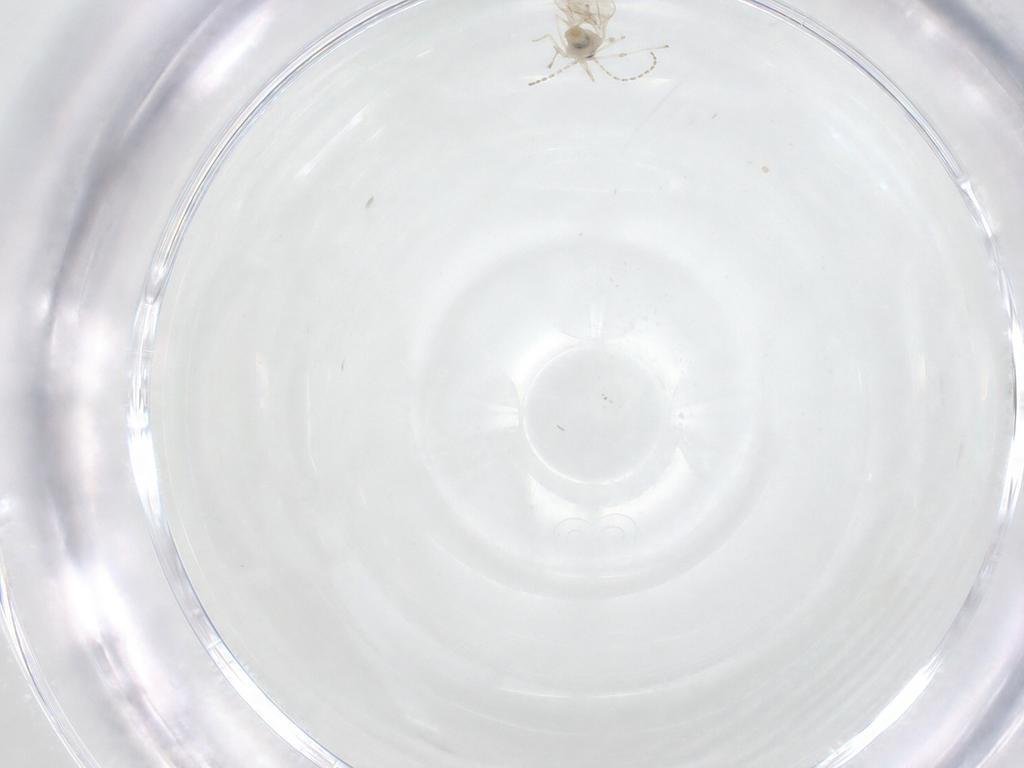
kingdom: Animalia
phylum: Arthropoda
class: Insecta
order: Diptera
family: Cecidomyiidae
